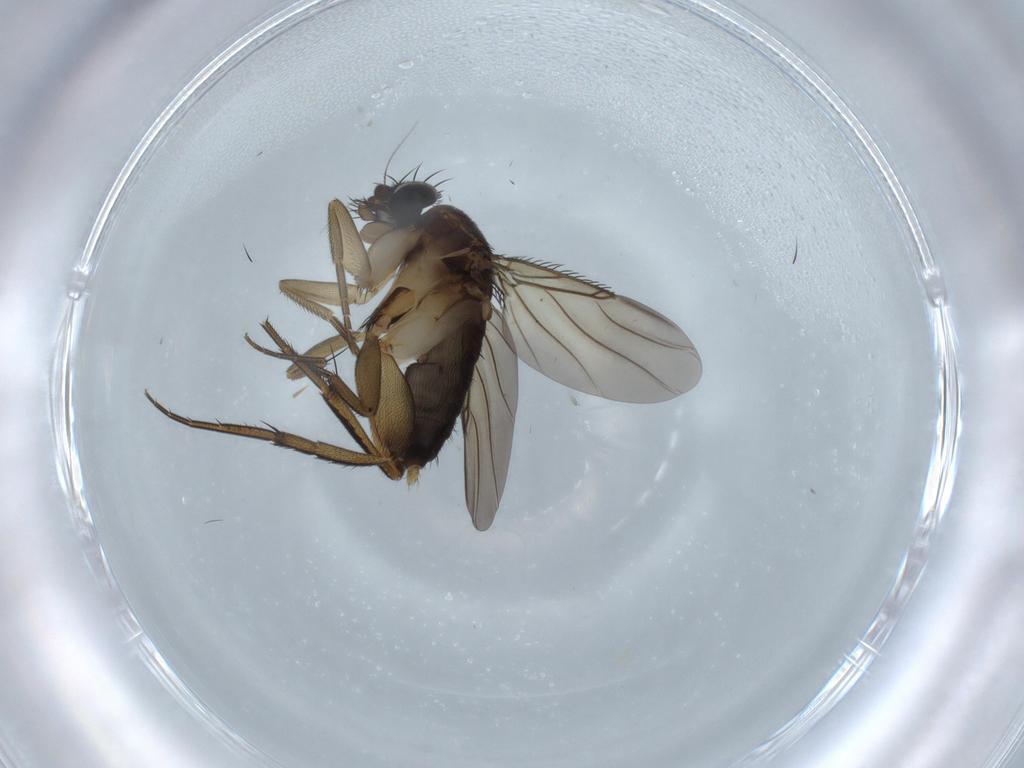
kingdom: Animalia
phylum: Arthropoda
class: Insecta
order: Diptera
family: Phoridae
